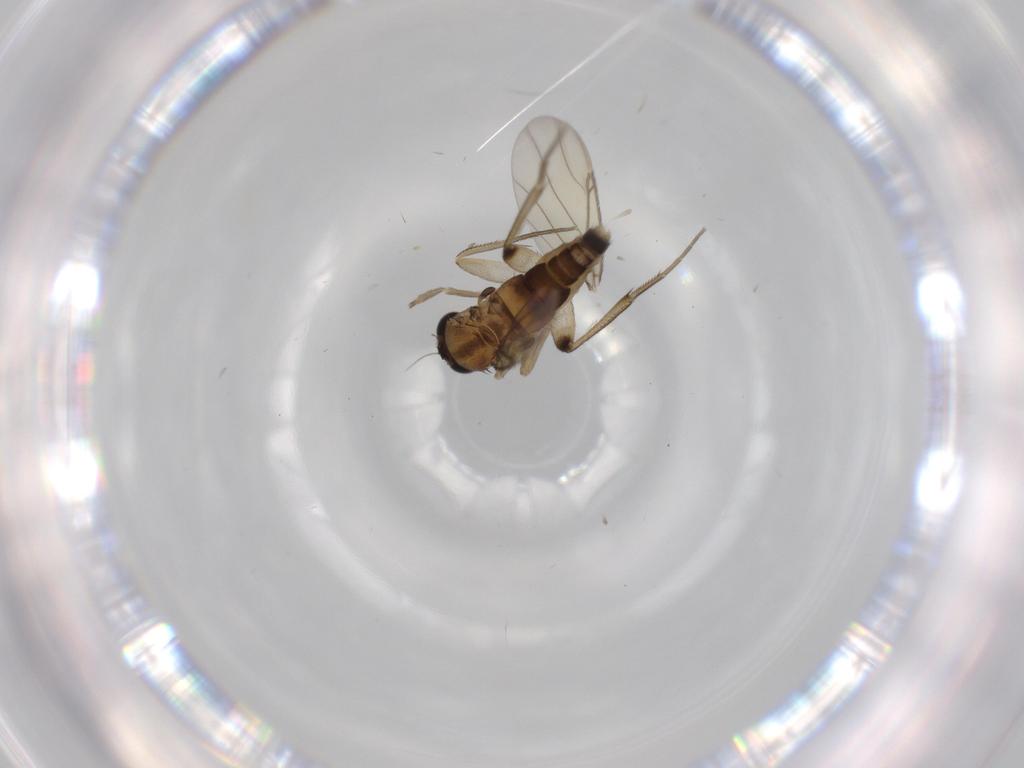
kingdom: Animalia
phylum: Arthropoda
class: Insecta
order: Diptera
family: Phoridae
